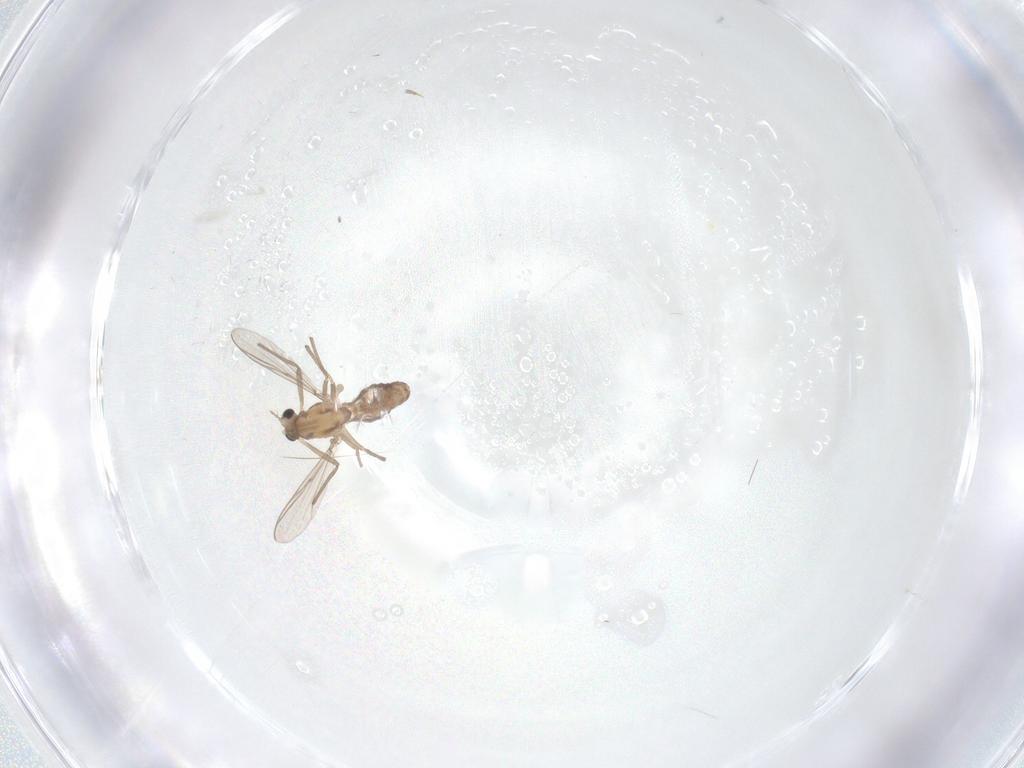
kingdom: Animalia
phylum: Arthropoda
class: Insecta
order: Diptera
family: Chironomidae
